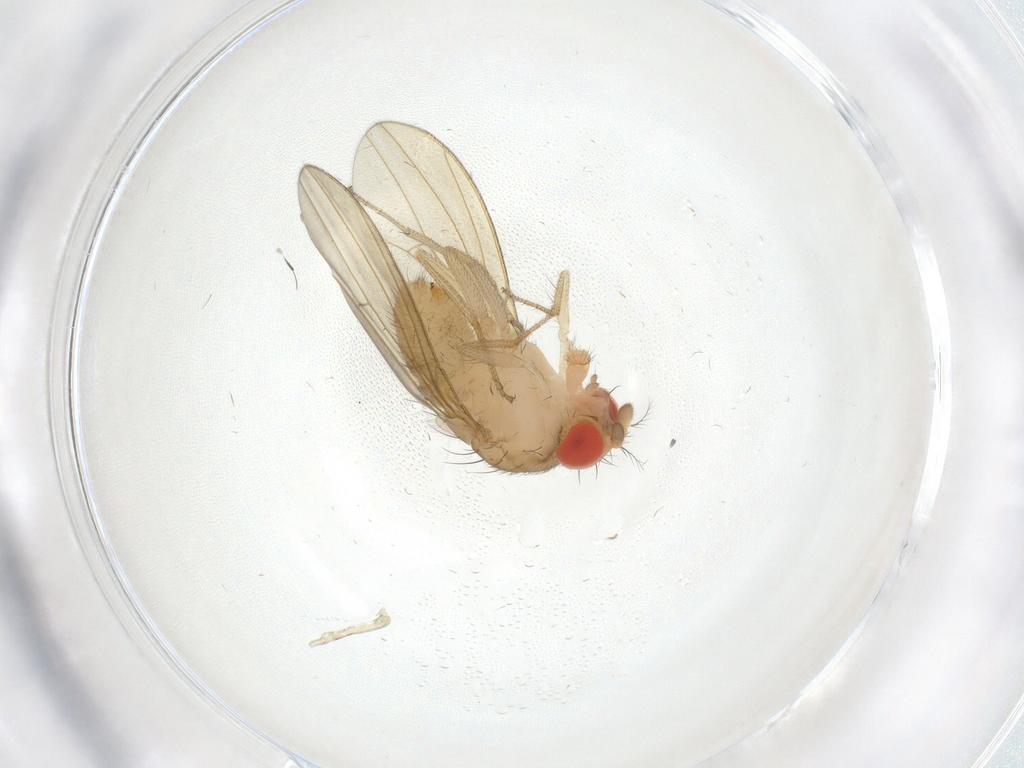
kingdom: Animalia
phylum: Arthropoda
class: Insecta
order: Diptera
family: Drosophilidae
